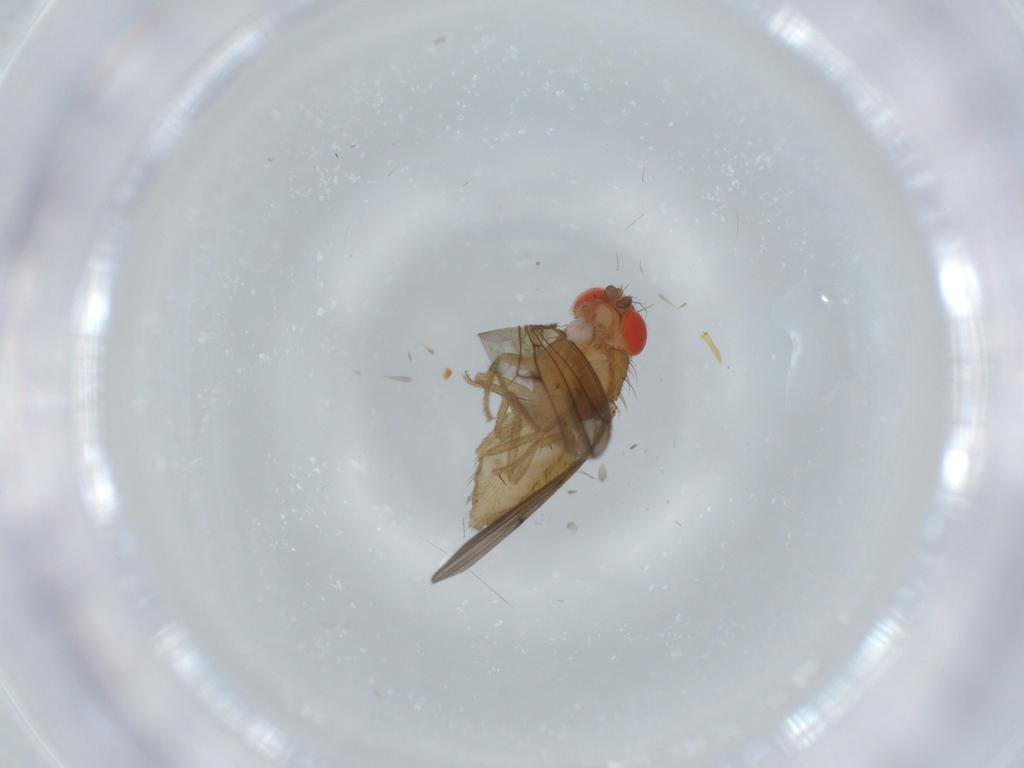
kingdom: Animalia
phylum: Arthropoda
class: Insecta
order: Diptera
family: Drosophilidae
